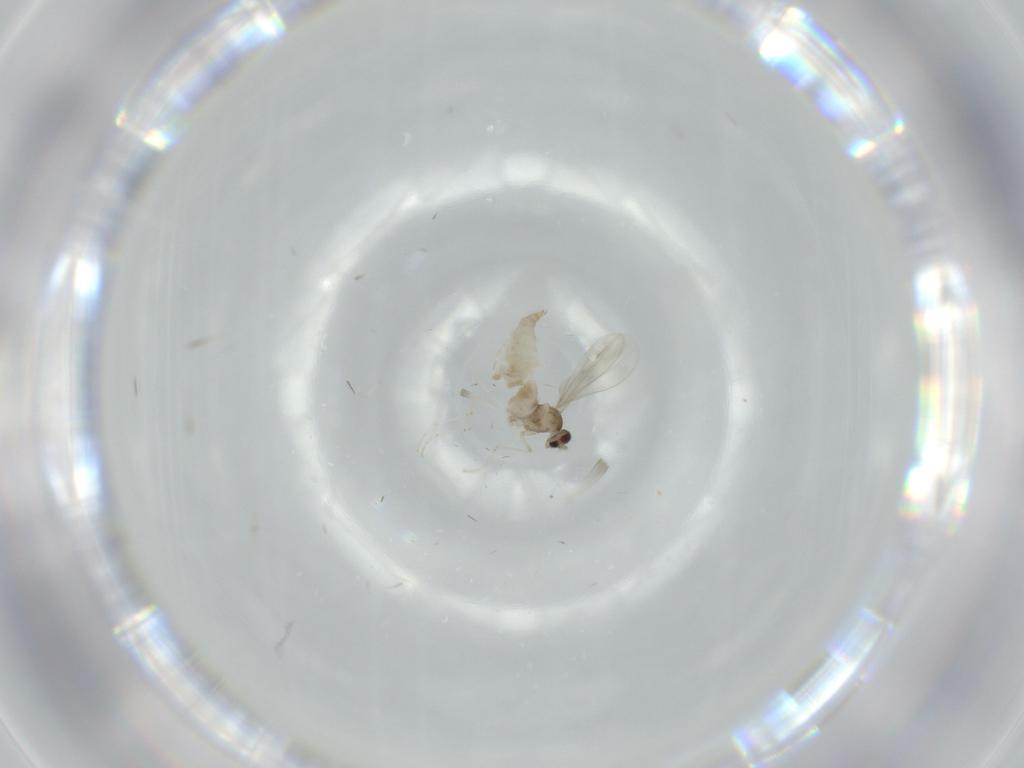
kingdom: Animalia
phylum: Arthropoda
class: Insecta
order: Diptera
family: Cecidomyiidae
